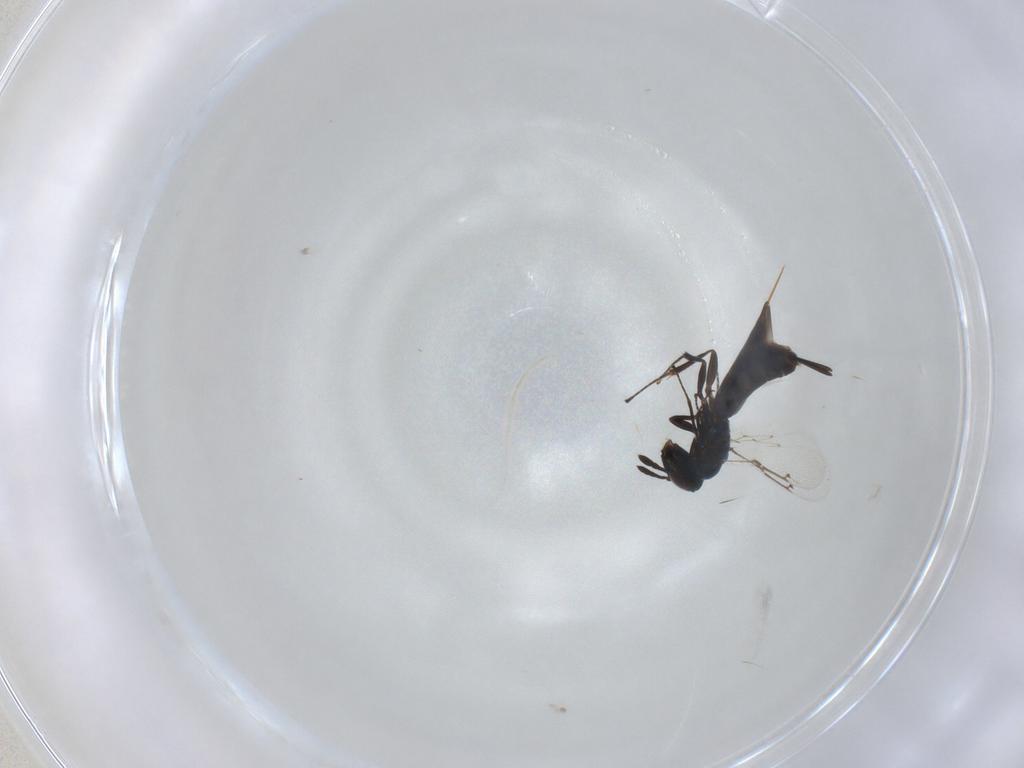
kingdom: Animalia
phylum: Arthropoda
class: Insecta
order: Hymenoptera
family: Pirenidae
